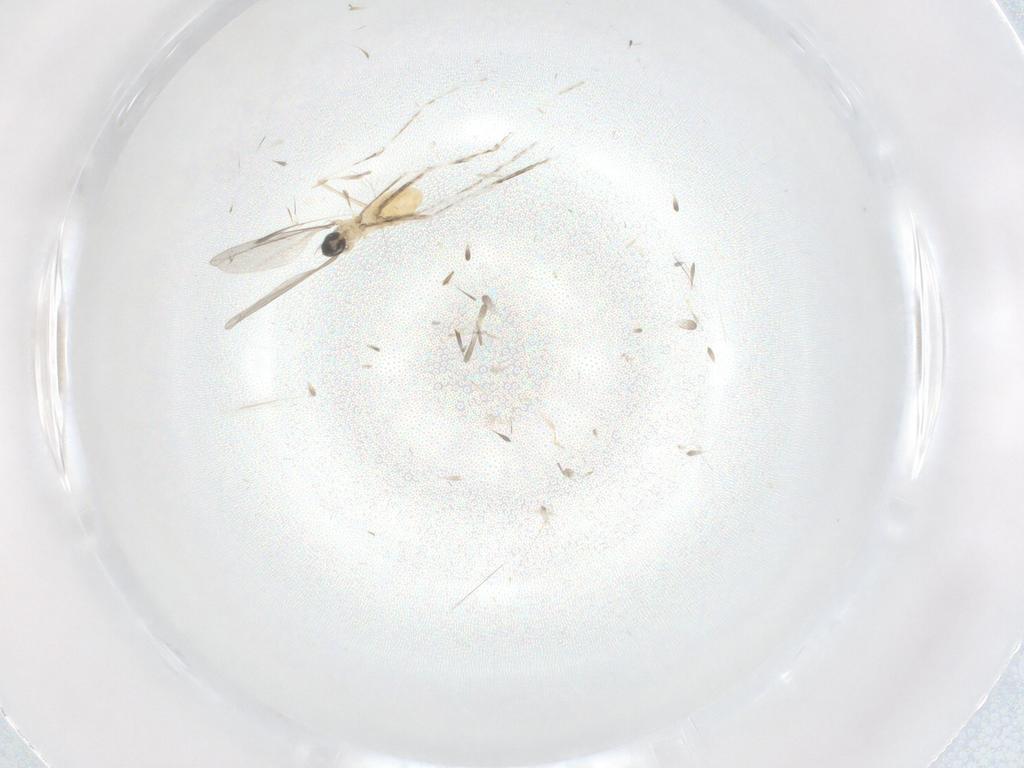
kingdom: Animalia
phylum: Arthropoda
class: Insecta
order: Diptera
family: Cecidomyiidae
